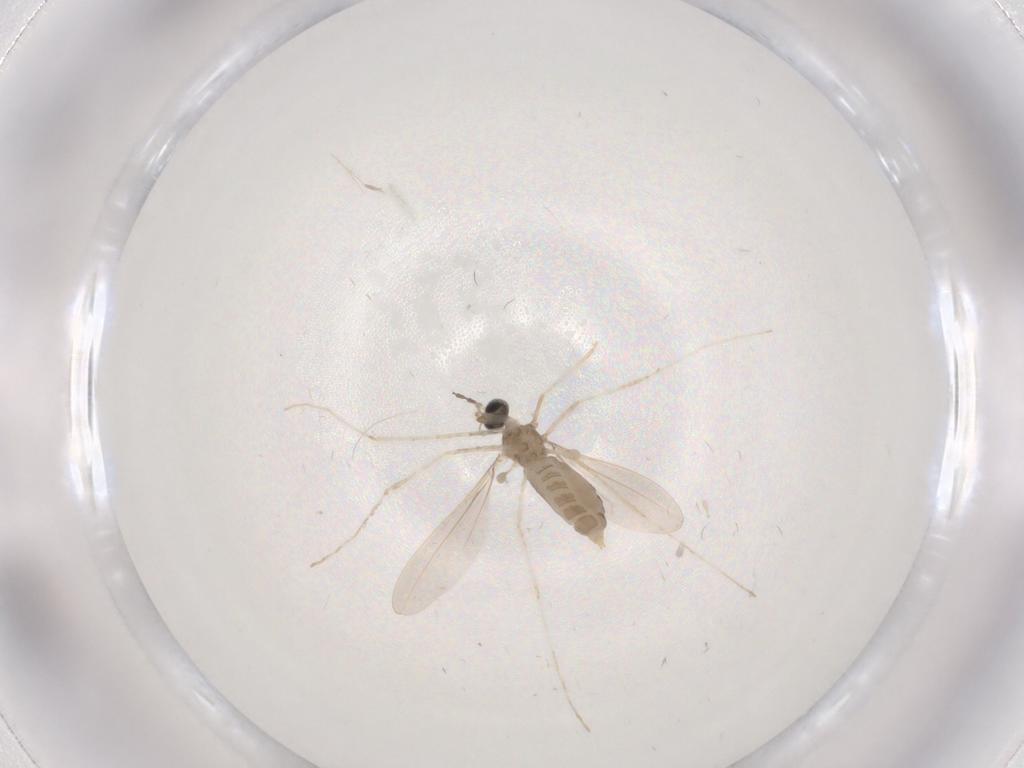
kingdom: Animalia
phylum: Arthropoda
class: Insecta
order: Diptera
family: Cecidomyiidae
